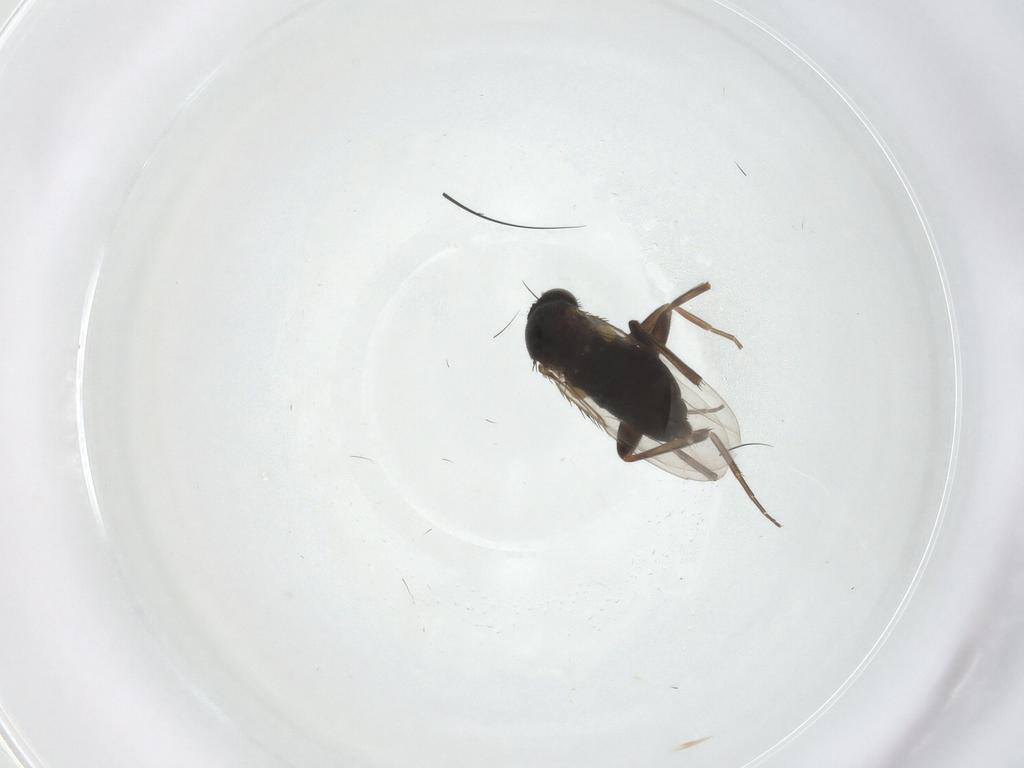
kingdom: Animalia
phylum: Arthropoda
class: Insecta
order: Diptera
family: Phoridae
